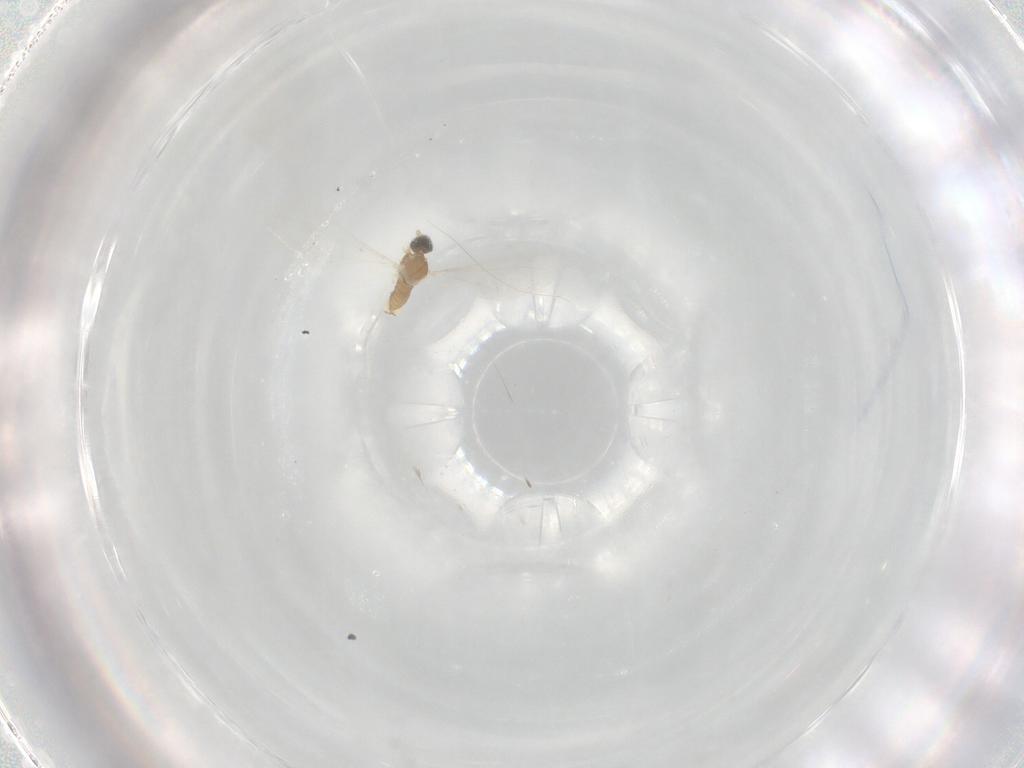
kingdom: Animalia
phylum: Arthropoda
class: Insecta
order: Diptera
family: Cecidomyiidae
